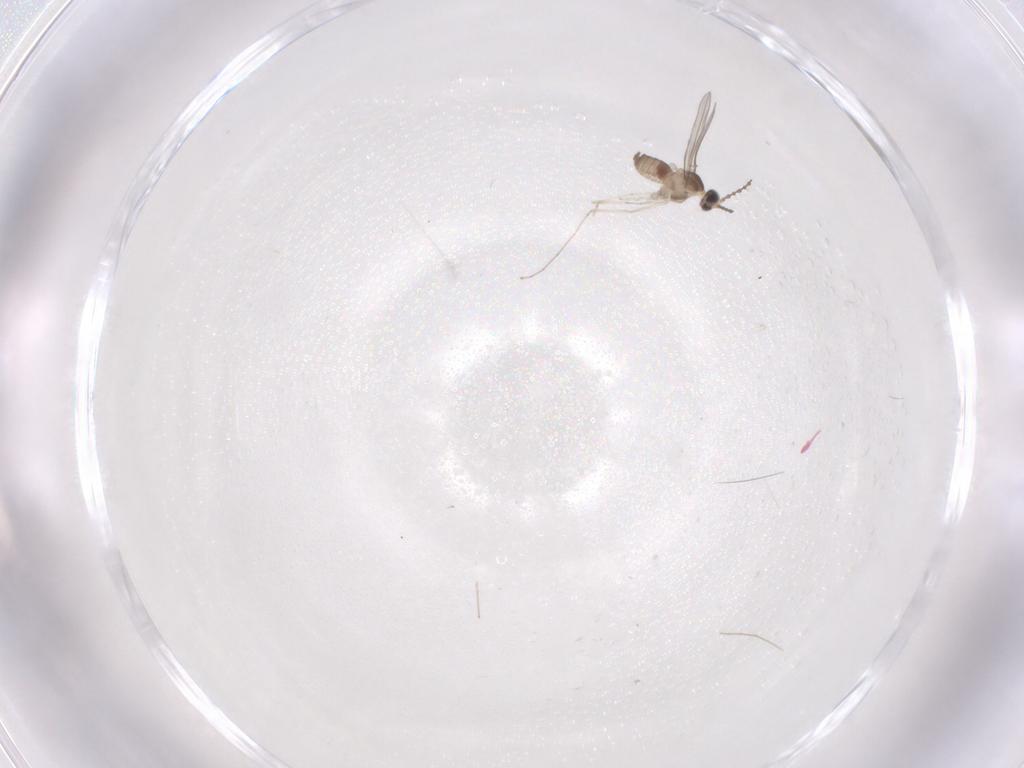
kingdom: Animalia
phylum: Arthropoda
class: Insecta
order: Diptera
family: Cecidomyiidae
